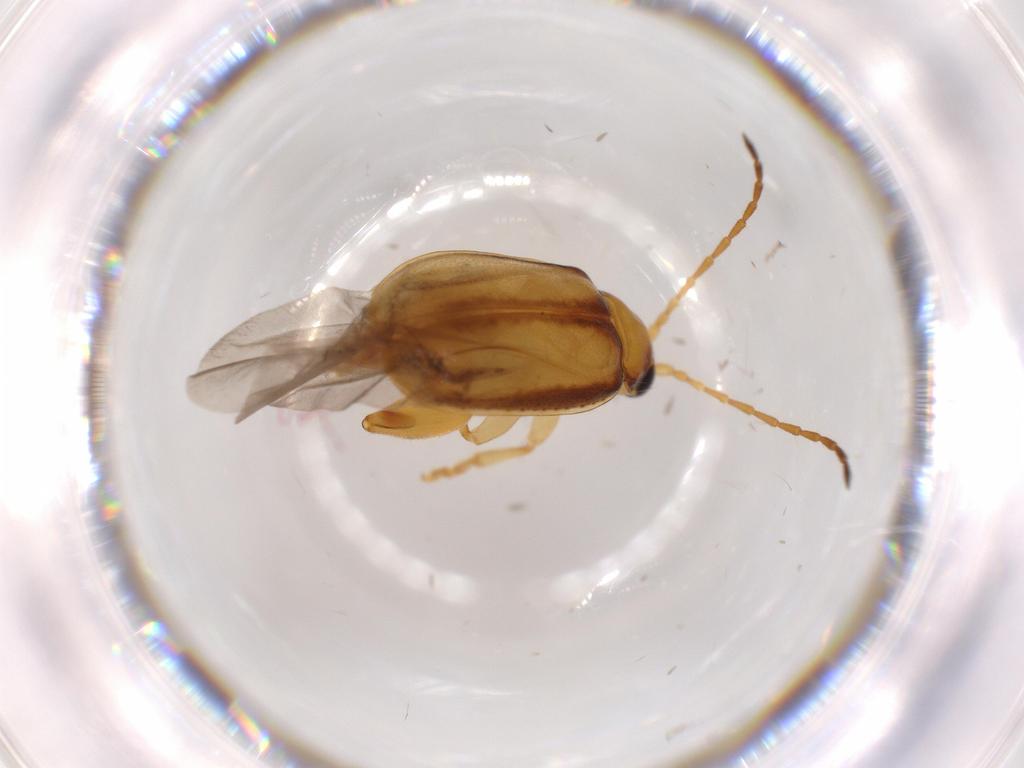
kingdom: Animalia
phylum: Arthropoda
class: Insecta
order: Coleoptera
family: Chrysomelidae
